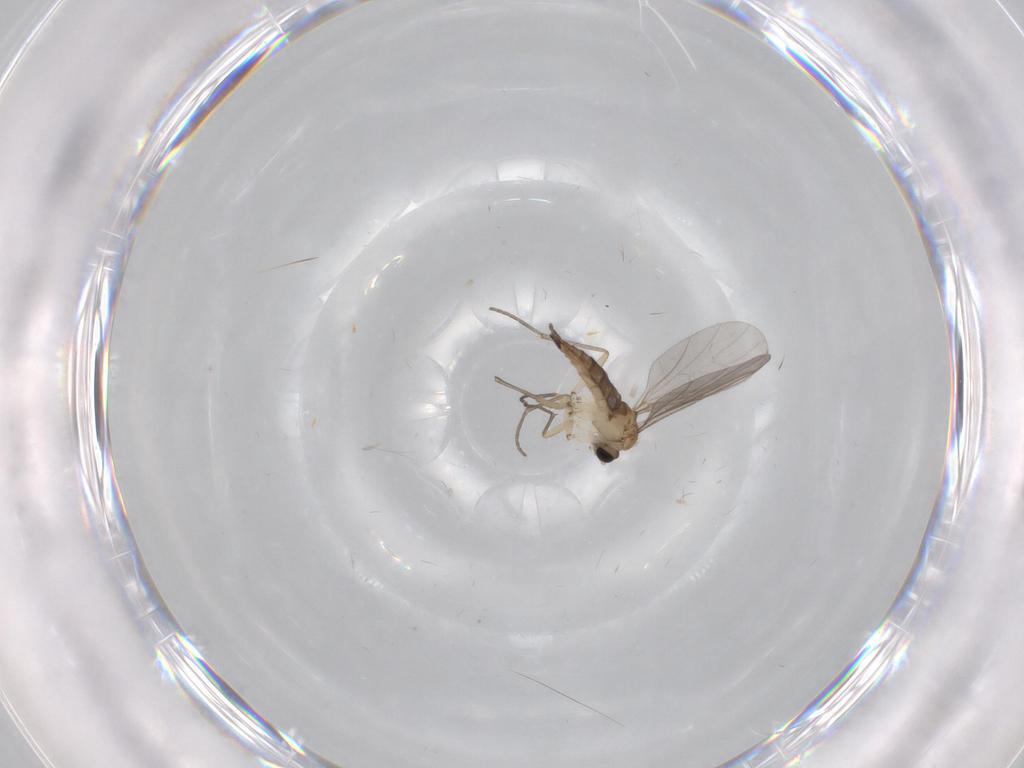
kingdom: Animalia
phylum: Arthropoda
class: Insecta
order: Diptera
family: Sciaridae
